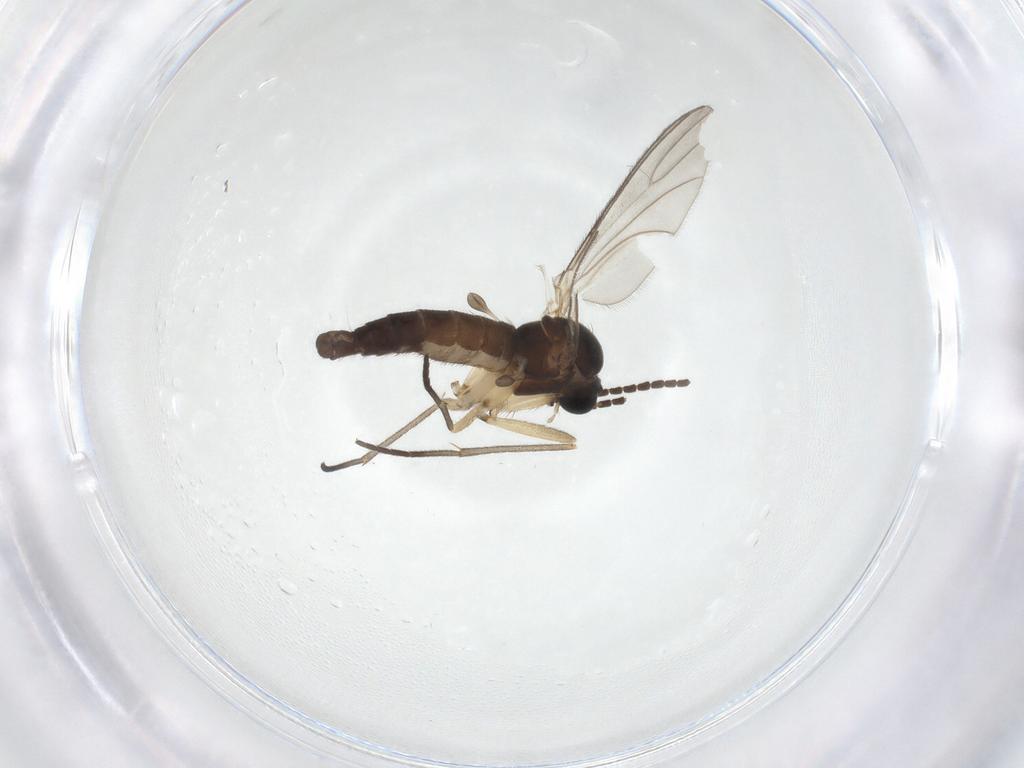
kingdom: Animalia
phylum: Arthropoda
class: Insecta
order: Diptera
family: Sciaridae
